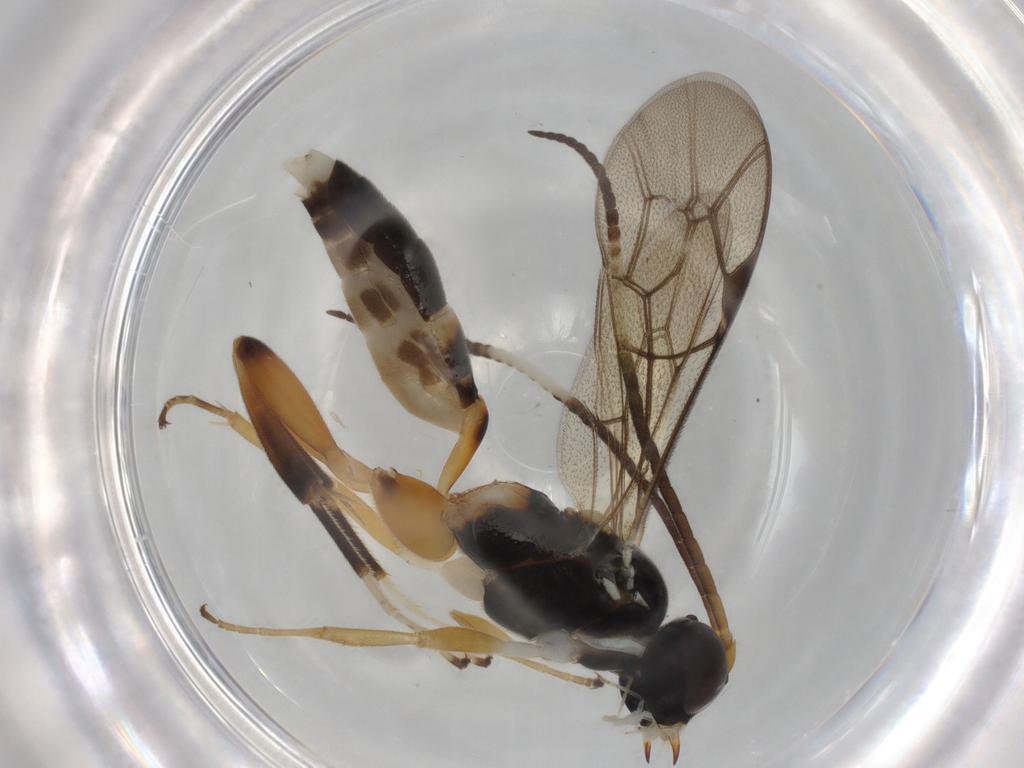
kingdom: Animalia
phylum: Arthropoda
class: Insecta
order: Hymenoptera
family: Ichneumonidae
